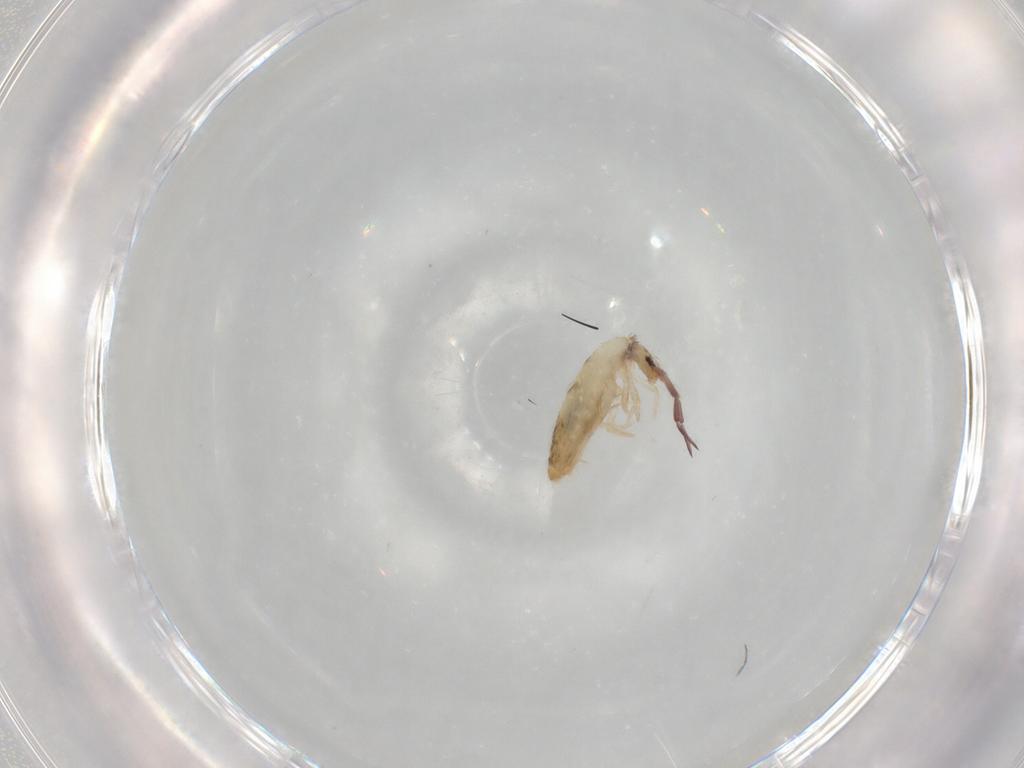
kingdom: Animalia
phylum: Arthropoda
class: Collembola
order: Entomobryomorpha
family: Entomobryidae
